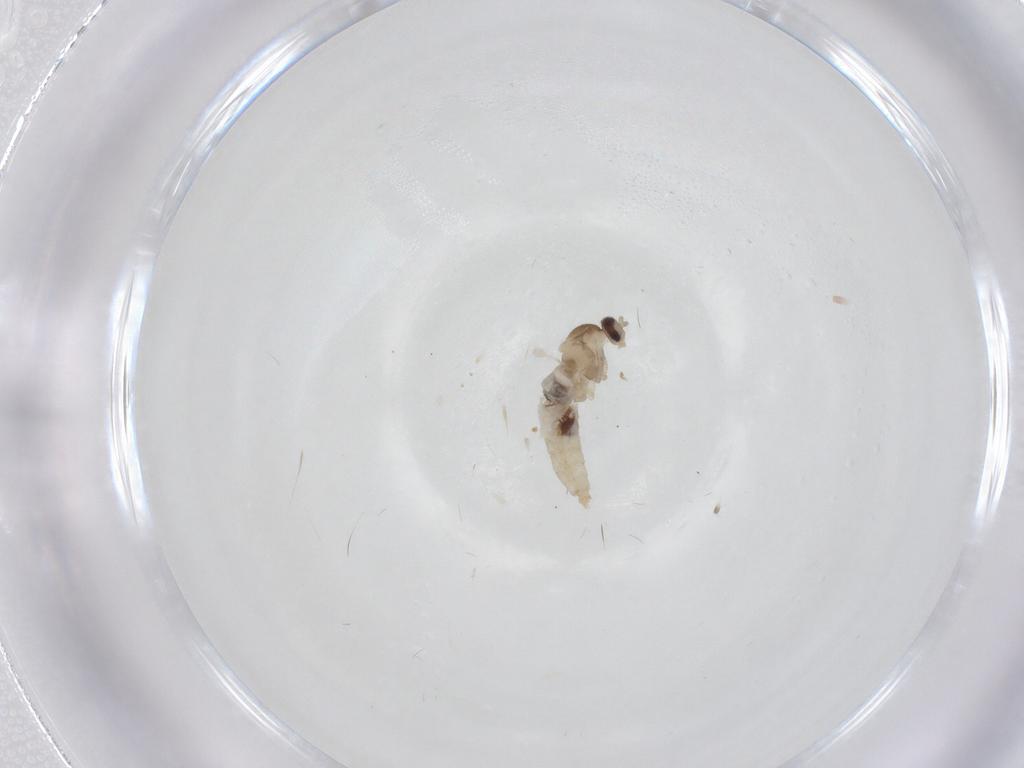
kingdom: Animalia
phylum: Arthropoda
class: Insecta
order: Diptera
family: Cecidomyiidae
